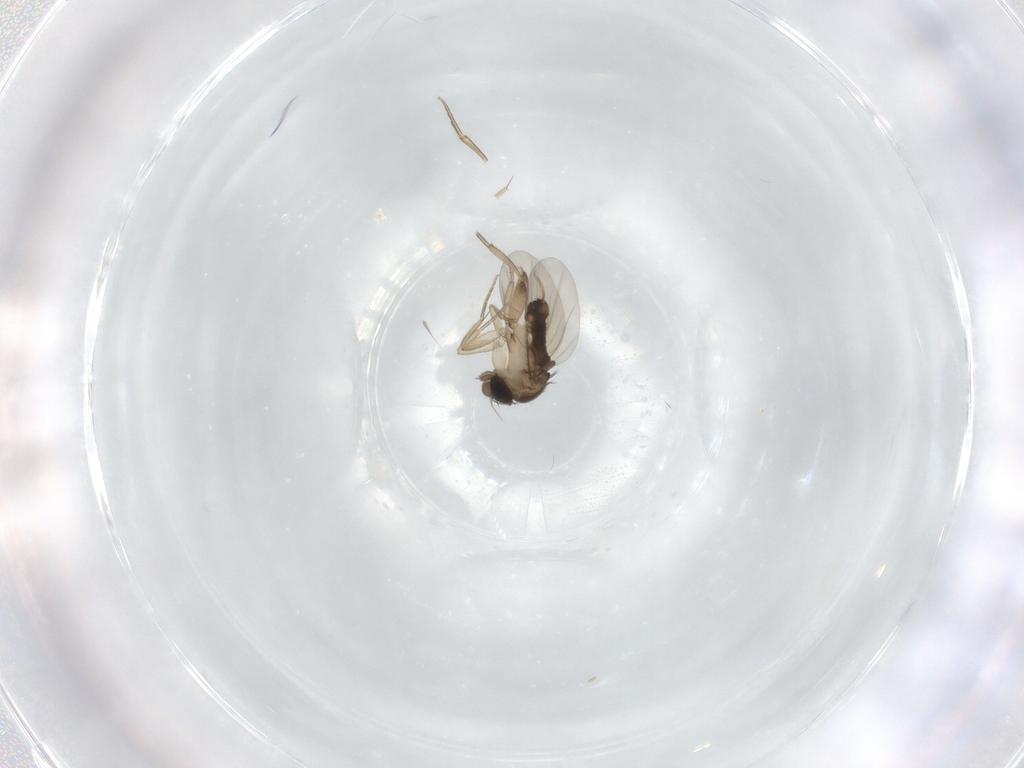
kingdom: Animalia
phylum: Arthropoda
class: Insecta
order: Diptera
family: Phoridae
